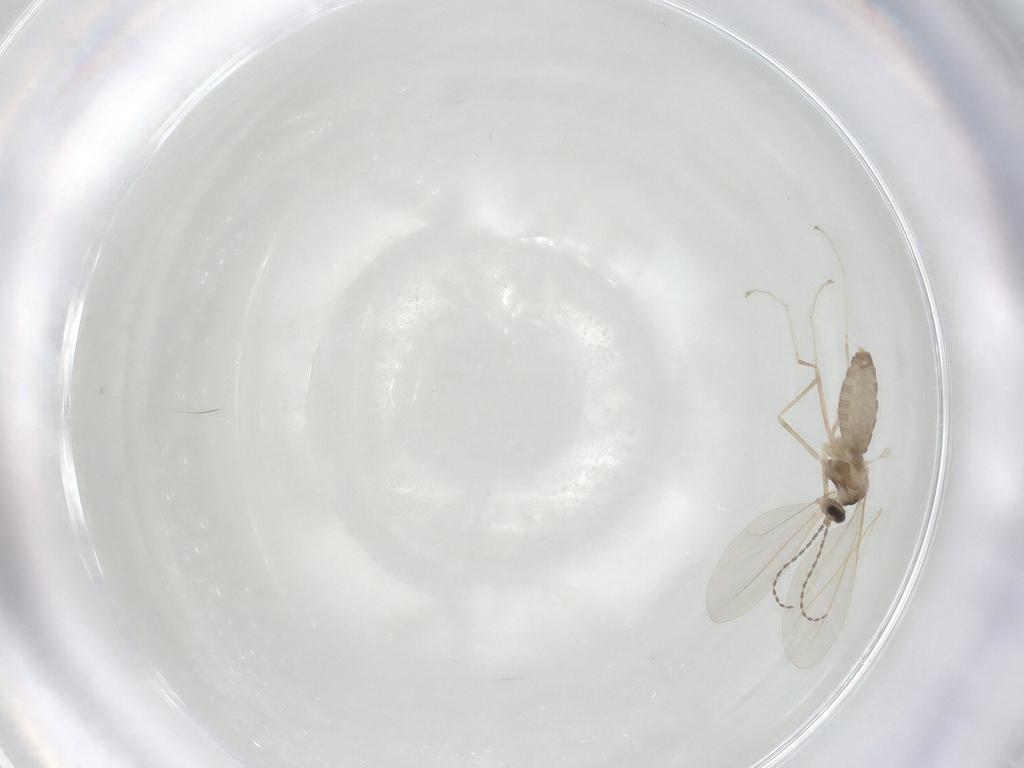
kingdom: Animalia
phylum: Arthropoda
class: Insecta
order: Diptera
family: Cecidomyiidae
